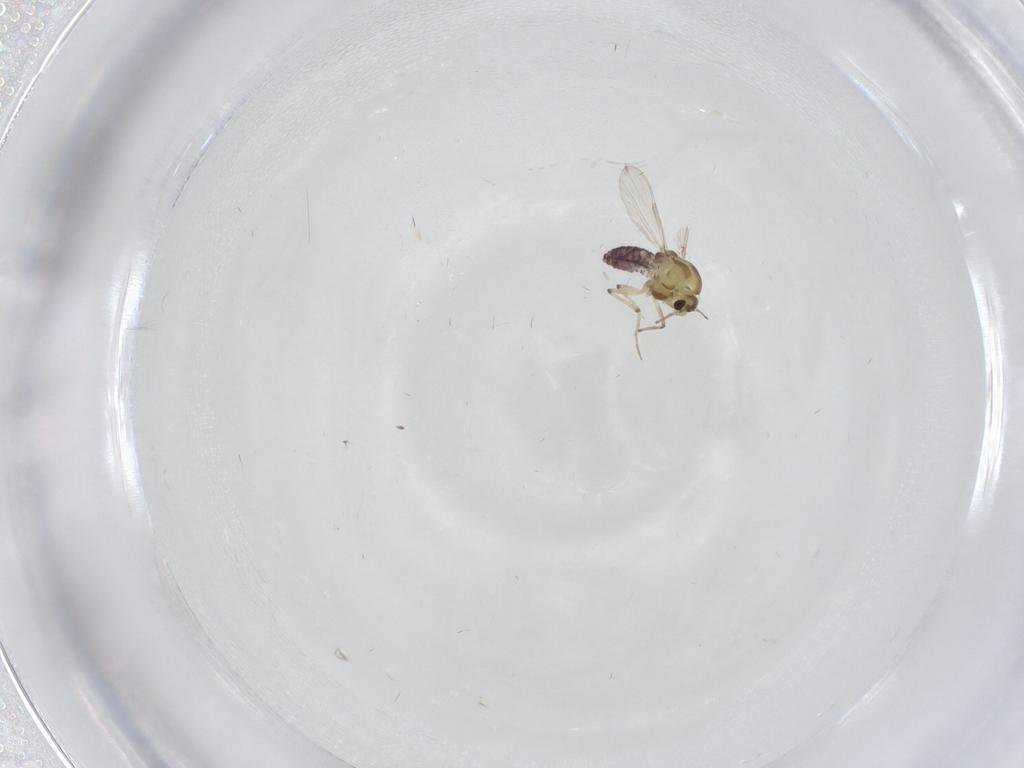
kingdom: Animalia
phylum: Arthropoda
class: Insecta
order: Diptera
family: Chironomidae
